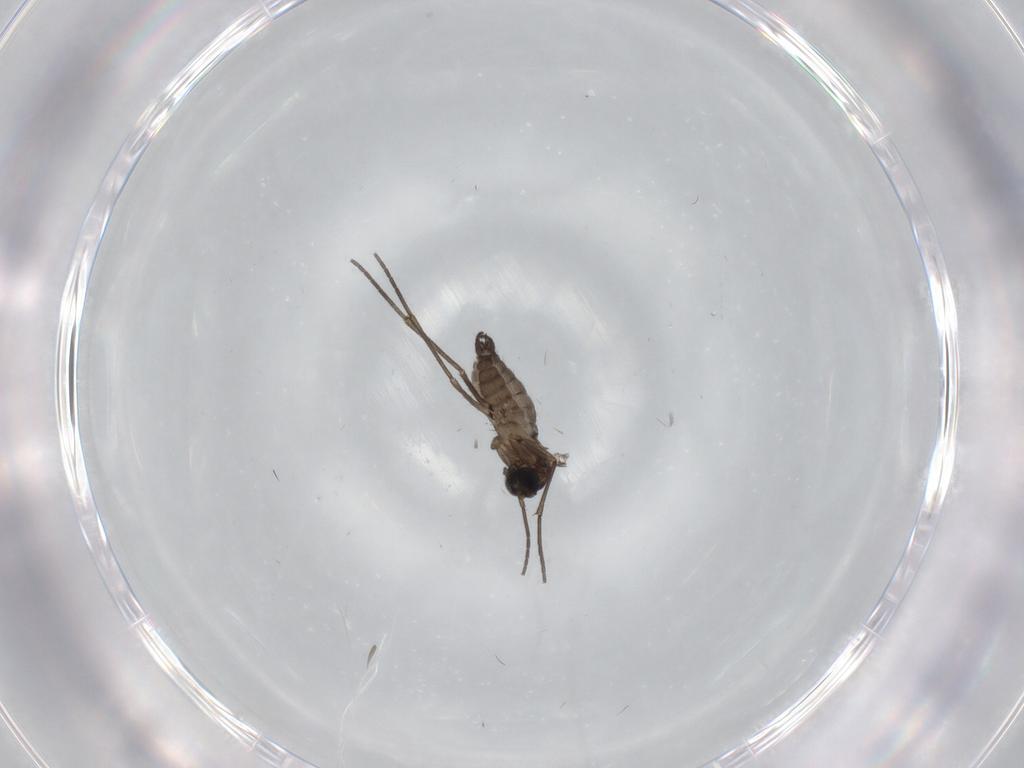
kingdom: Animalia
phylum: Arthropoda
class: Insecta
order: Diptera
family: Sciaridae
